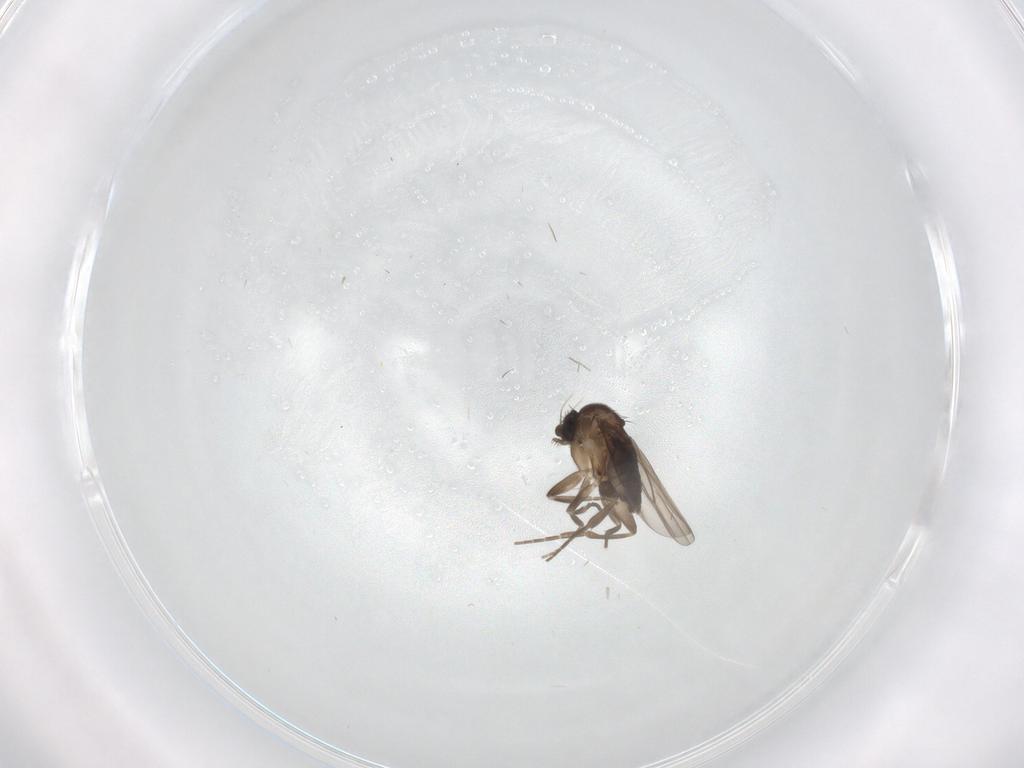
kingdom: Animalia
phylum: Arthropoda
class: Insecta
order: Diptera
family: Phoridae
